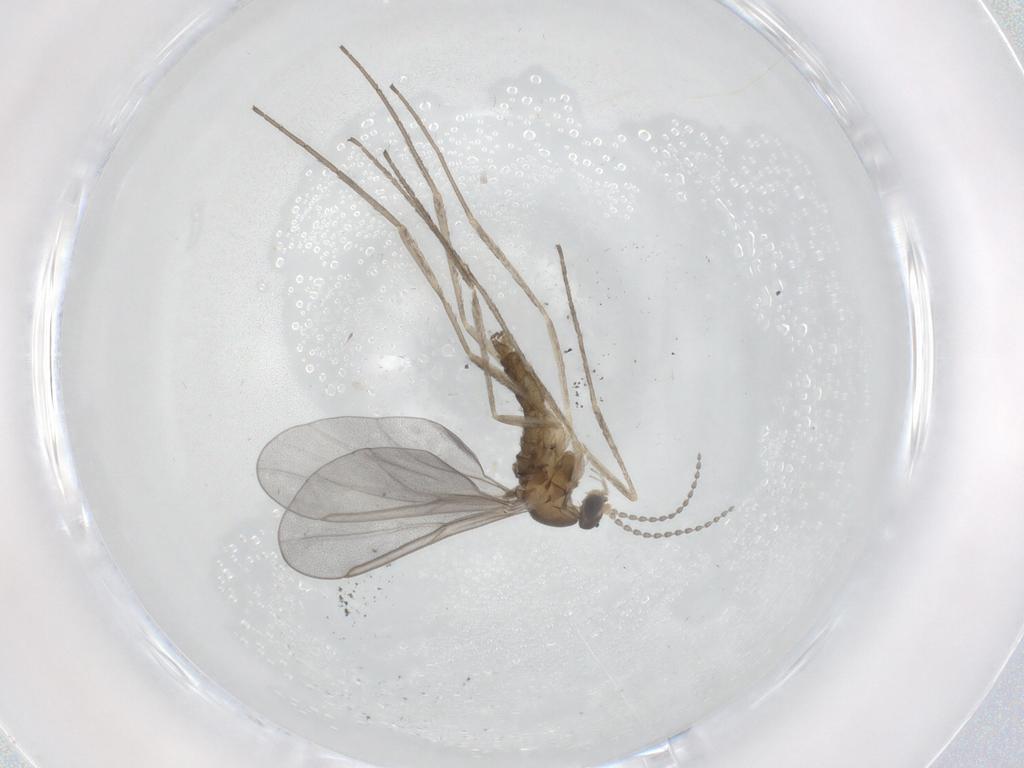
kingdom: Animalia
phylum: Arthropoda
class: Insecta
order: Diptera
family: Cecidomyiidae
